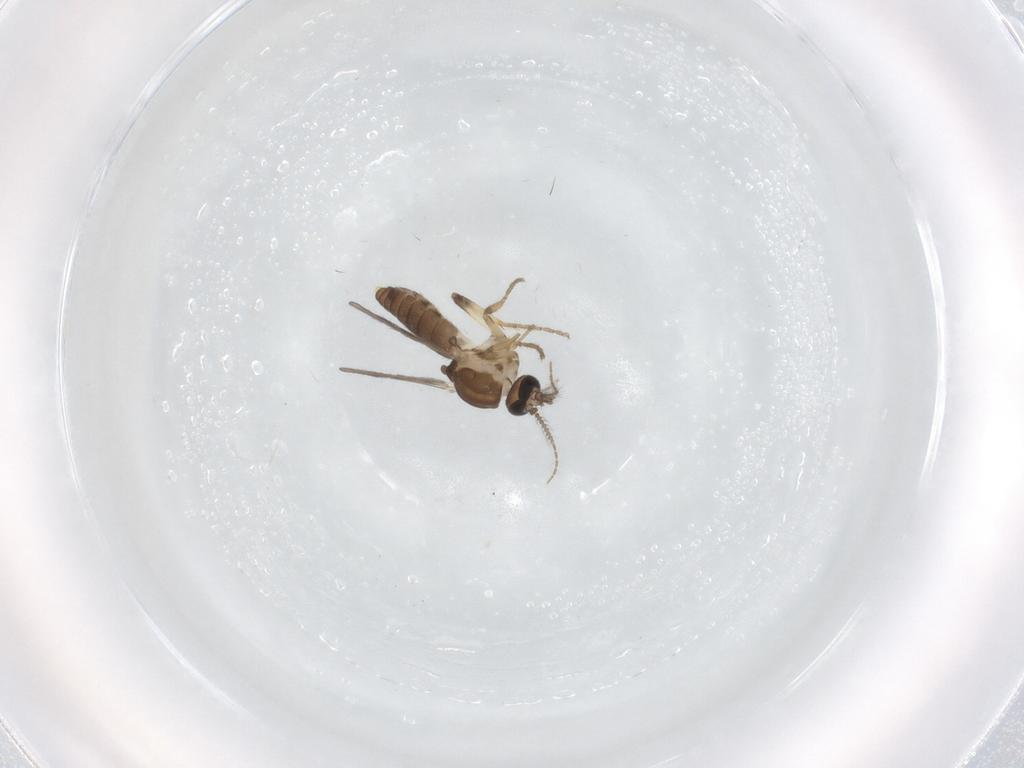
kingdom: Animalia
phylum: Arthropoda
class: Insecta
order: Diptera
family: Ceratopogonidae
